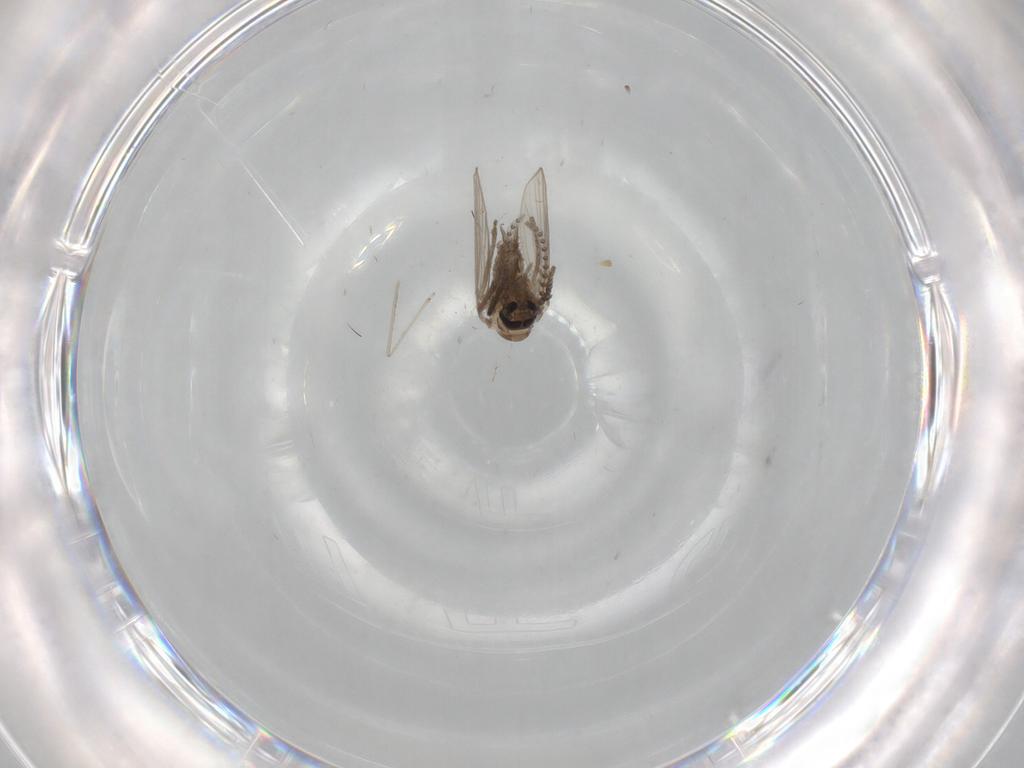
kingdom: Animalia
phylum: Arthropoda
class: Insecta
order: Diptera
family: Psychodidae
